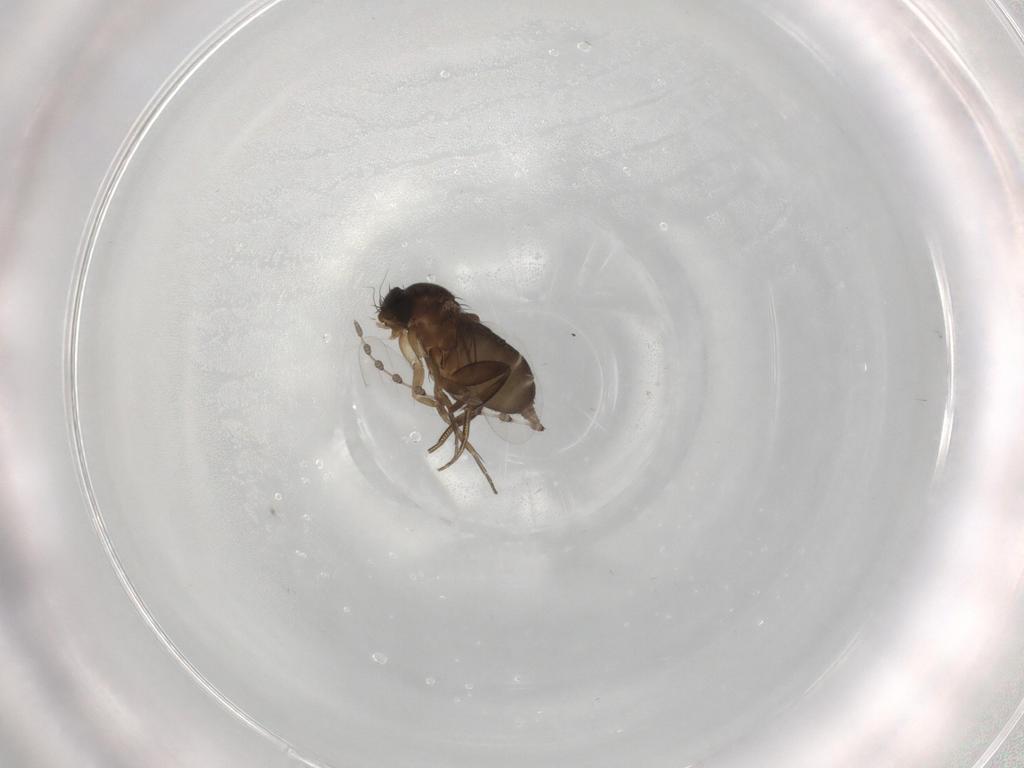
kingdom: Animalia
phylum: Arthropoda
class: Insecta
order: Diptera
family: Phoridae
